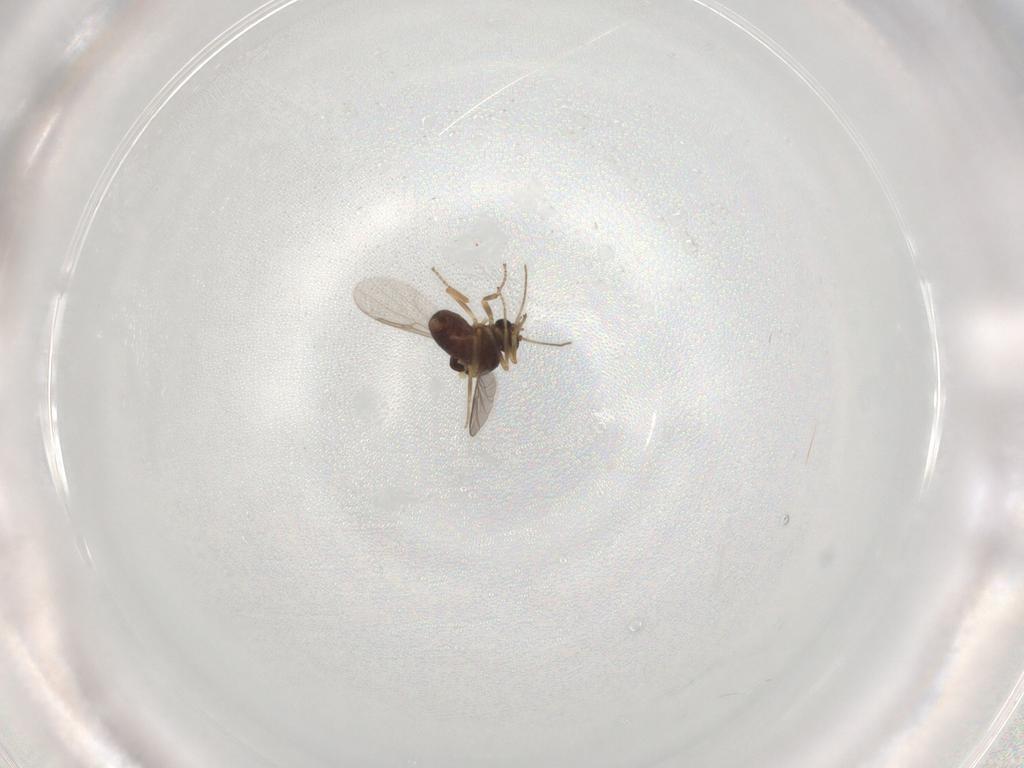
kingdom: Animalia
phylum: Arthropoda
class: Insecta
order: Diptera
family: Ceratopogonidae
